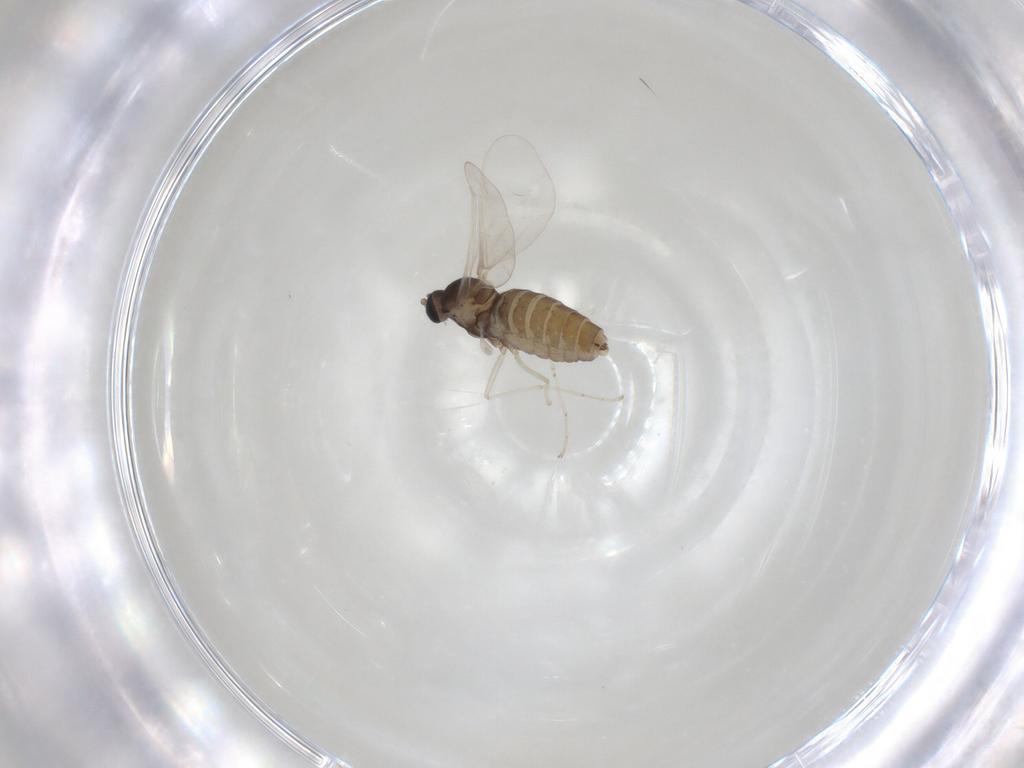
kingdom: Animalia
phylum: Arthropoda
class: Insecta
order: Diptera
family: Cecidomyiidae
